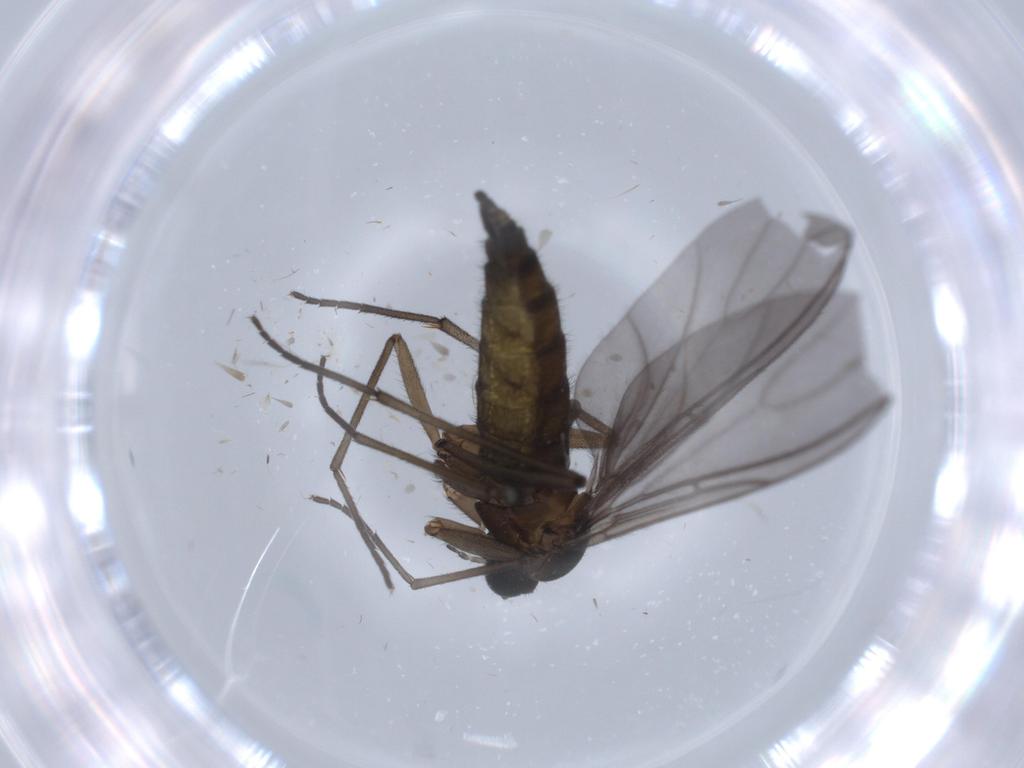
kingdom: Animalia
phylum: Arthropoda
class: Insecta
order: Diptera
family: Sciaridae
